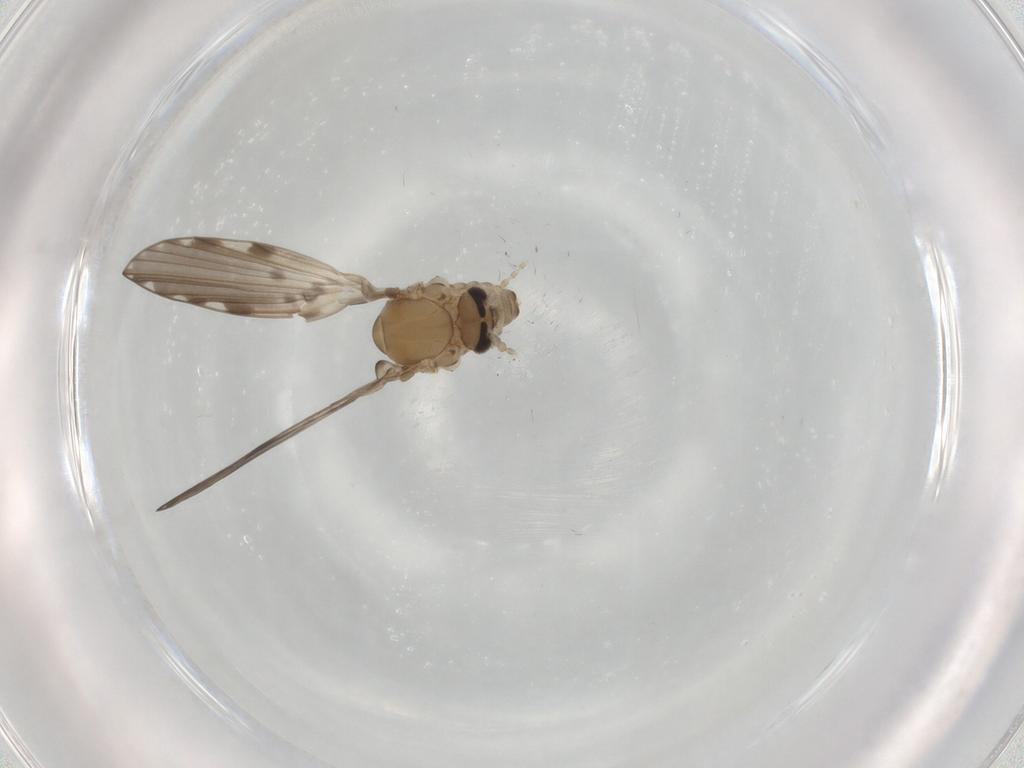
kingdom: Animalia
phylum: Arthropoda
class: Insecta
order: Diptera
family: Psychodidae
